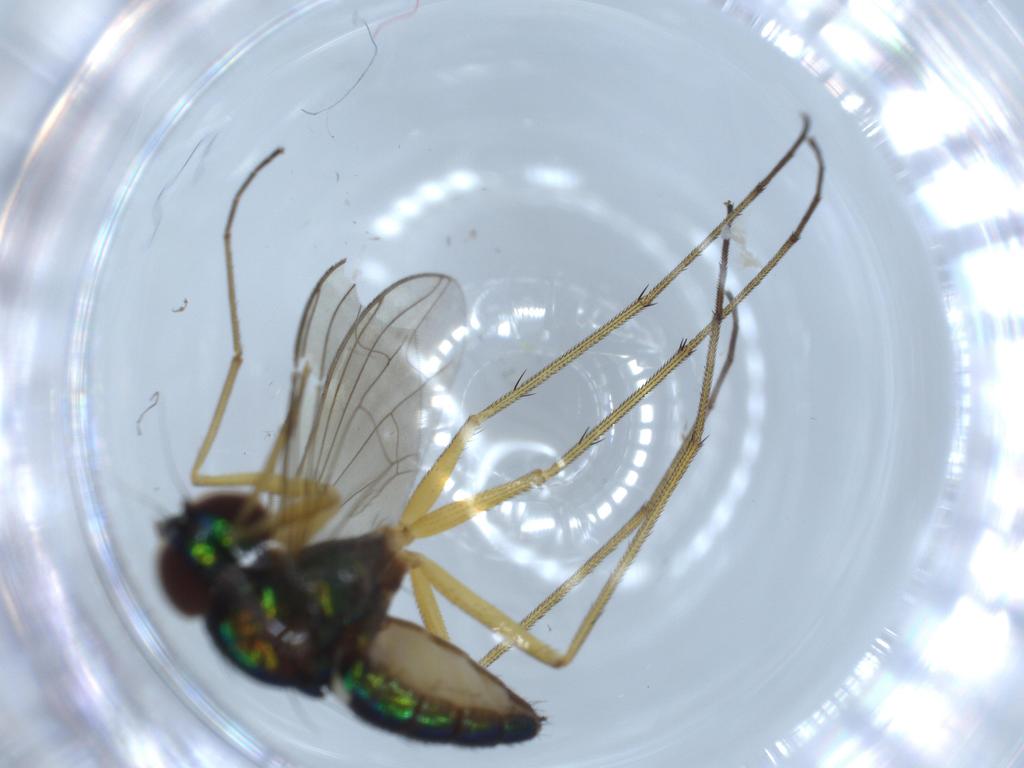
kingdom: Animalia
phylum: Arthropoda
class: Insecta
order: Diptera
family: Dolichopodidae
